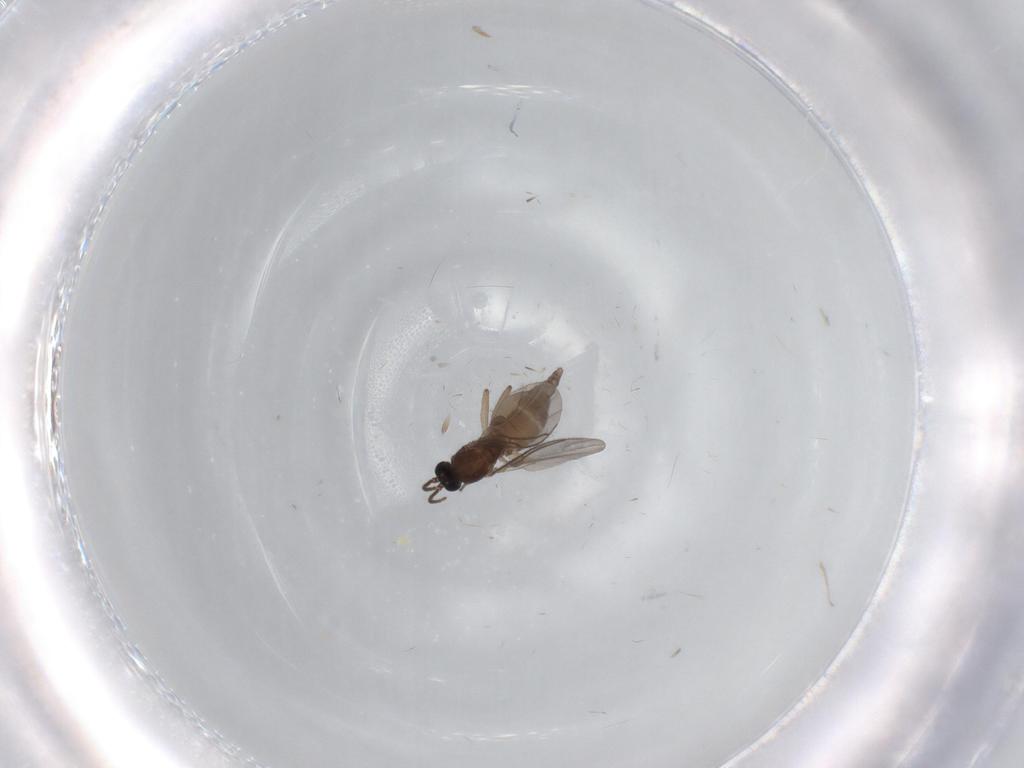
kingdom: Animalia
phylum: Arthropoda
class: Insecta
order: Diptera
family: Sciaridae
